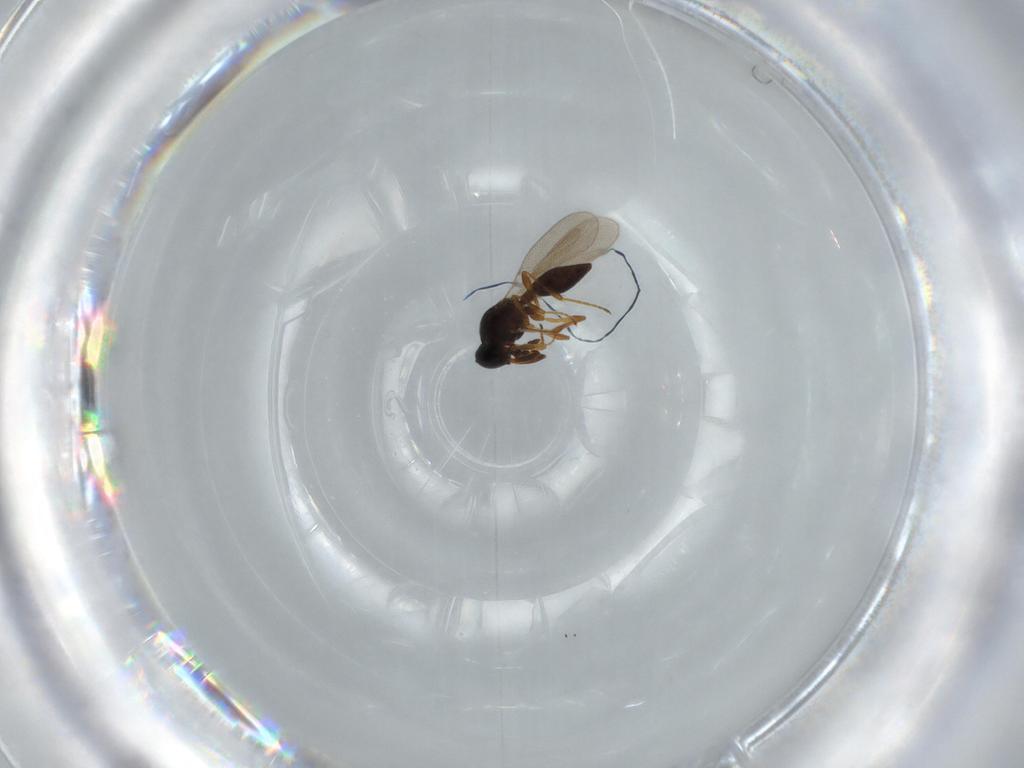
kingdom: Animalia
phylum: Arthropoda
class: Insecta
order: Hymenoptera
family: Platygastridae
